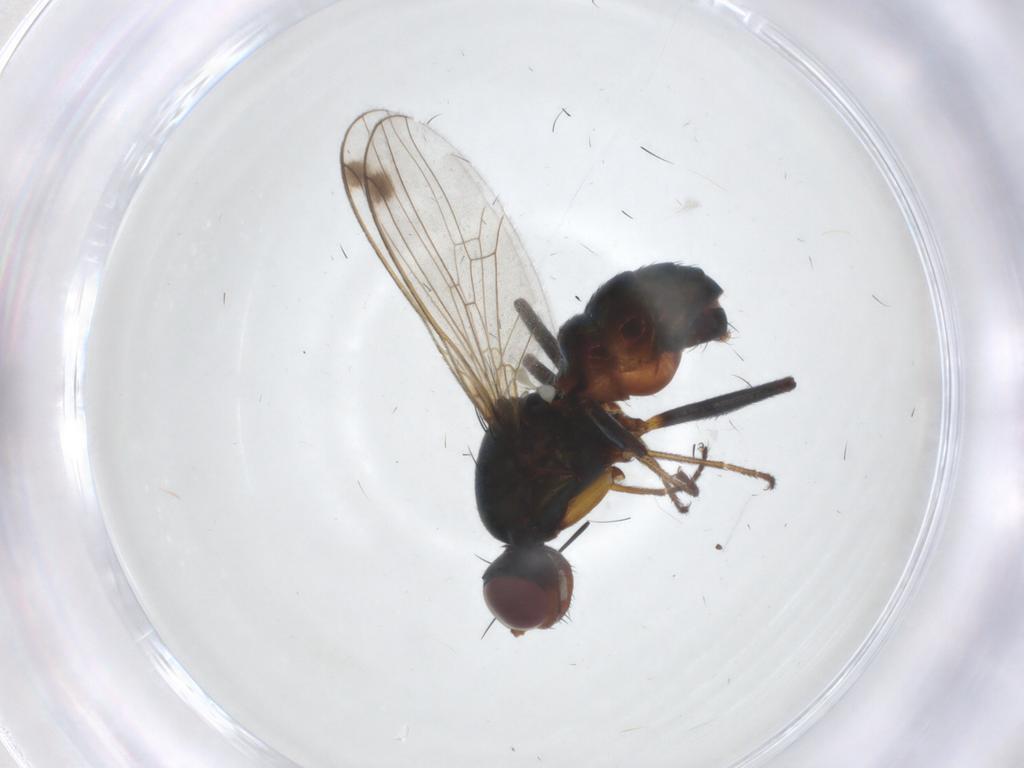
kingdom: Animalia
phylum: Arthropoda
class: Insecta
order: Diptera
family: Sepsidae
